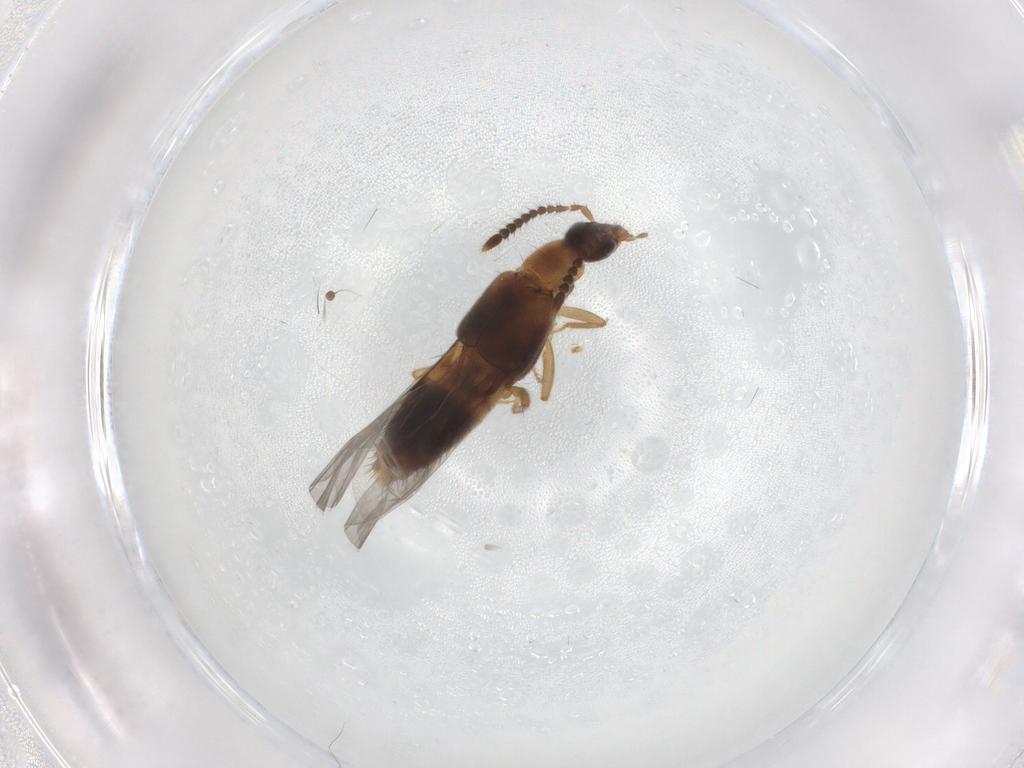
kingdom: Animalia
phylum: Arthropoda
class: Insecta
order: Coleoptera
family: Staphylinidae
